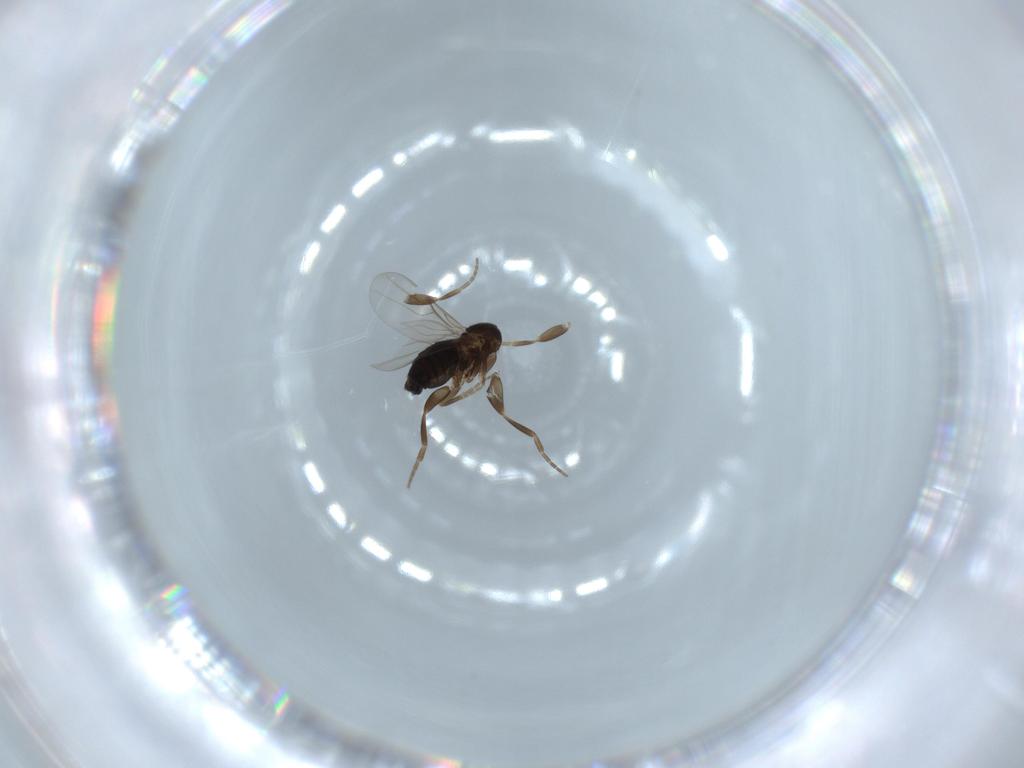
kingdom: Animalia
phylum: Arthropoda
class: Insecta
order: Diptera
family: Phoridae
